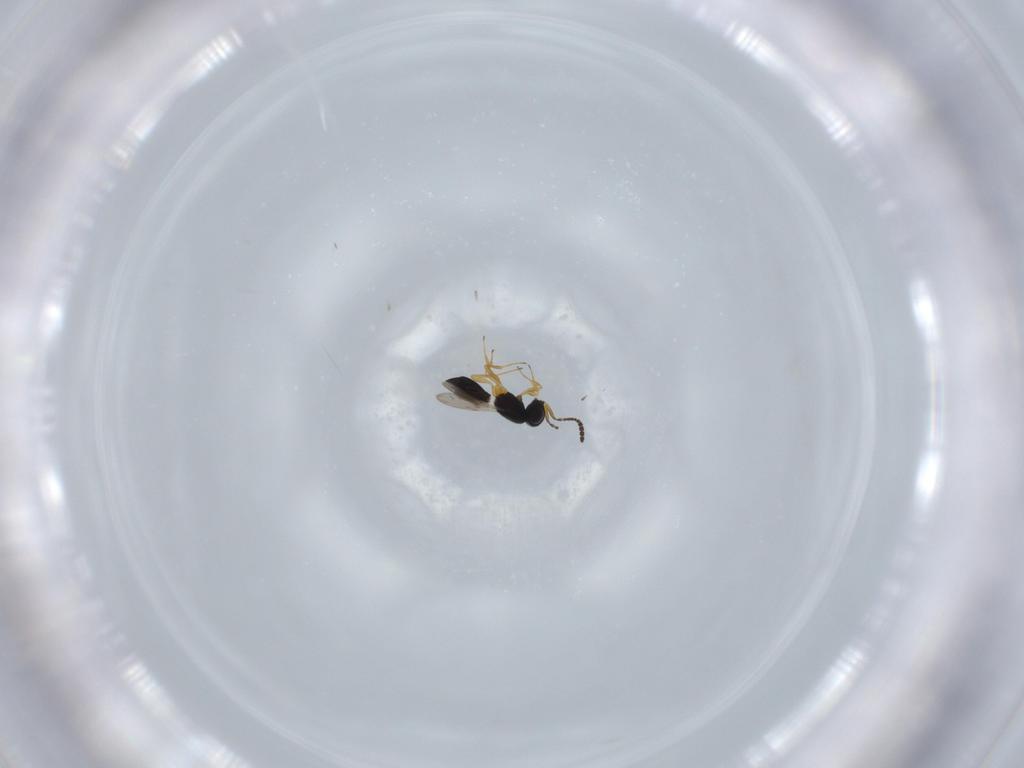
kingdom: Animalia
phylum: Arthropoda
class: Insecta
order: Hymenoptera
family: Scelionidae
